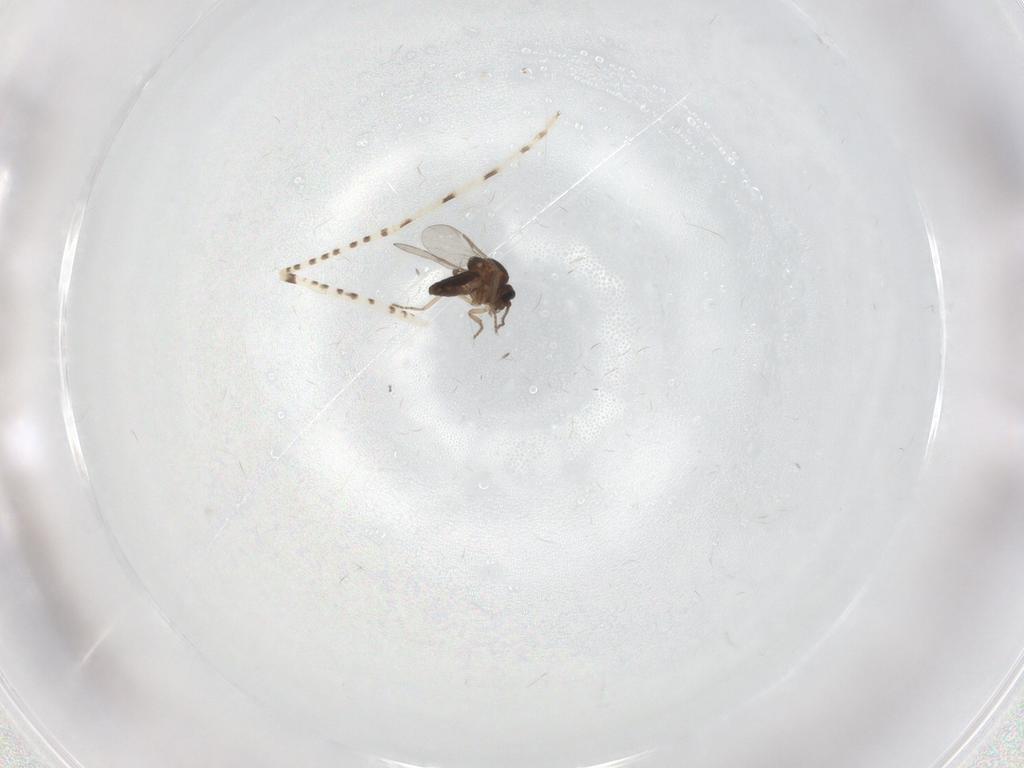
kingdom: Animalia
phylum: Arthropoda
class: Insecta
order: Diptera
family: Chaoboridae
